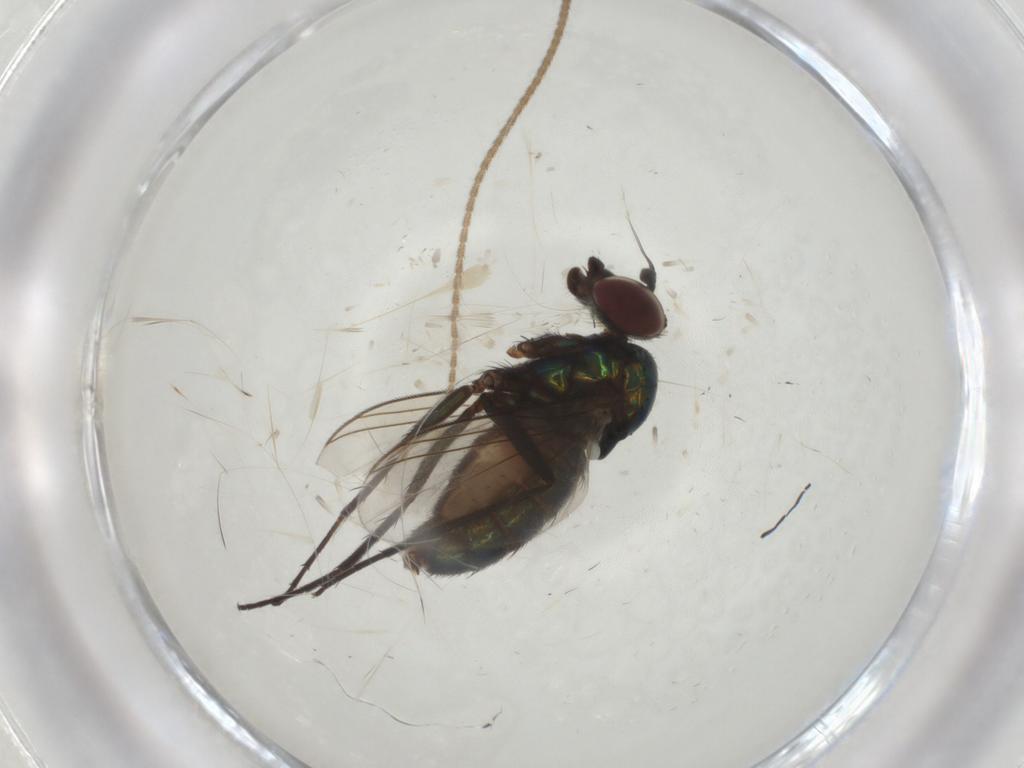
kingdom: Animalia
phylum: Arthropoda
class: Insecta
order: Diptera
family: Dolichopodidae
